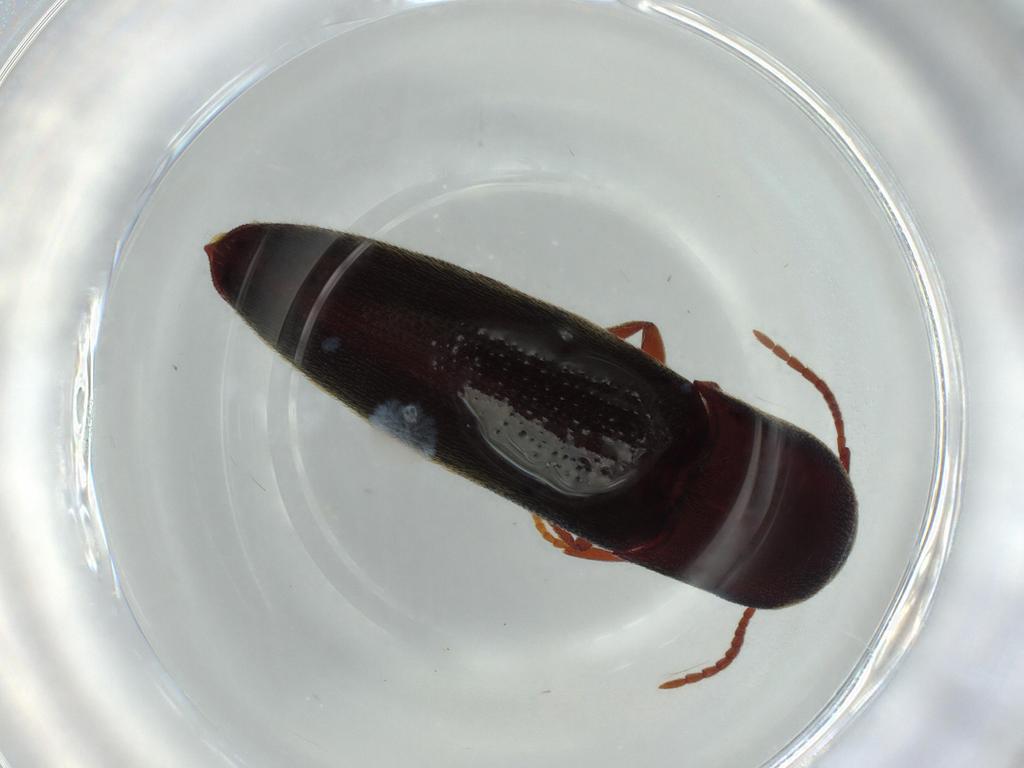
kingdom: Animalia
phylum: Arthropoda
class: Insecta
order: Coleoptera
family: Eucnemidae
